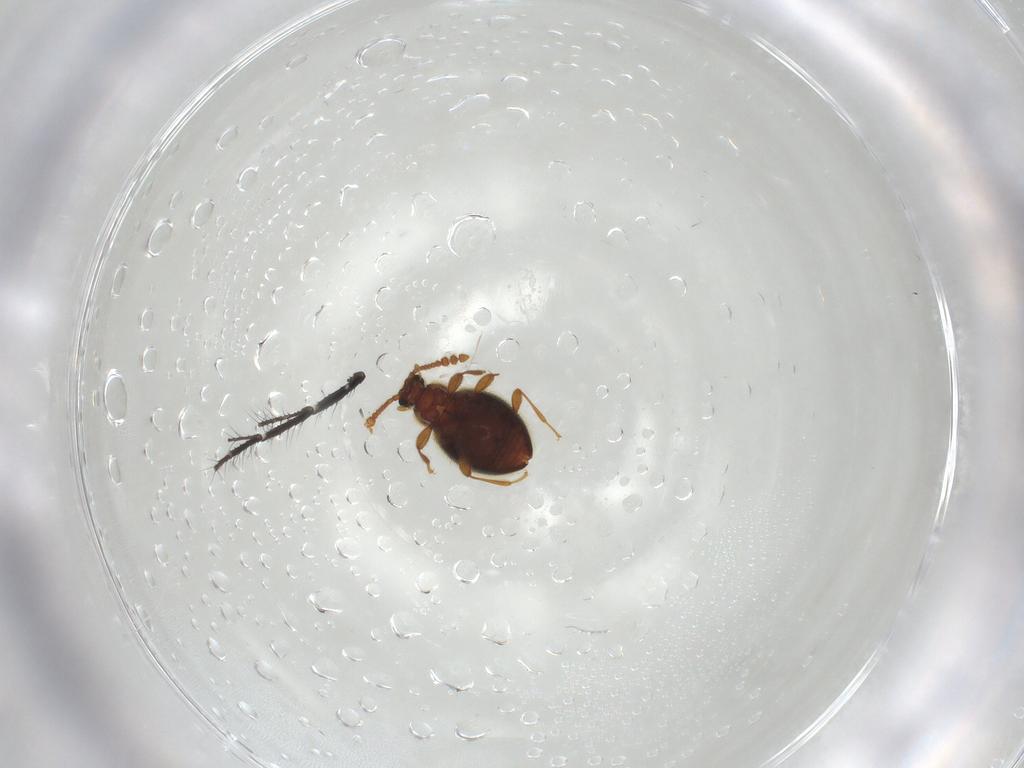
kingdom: Animalia
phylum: Arthropoda
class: Insecta
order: Coleoptera
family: Staphylinidae
